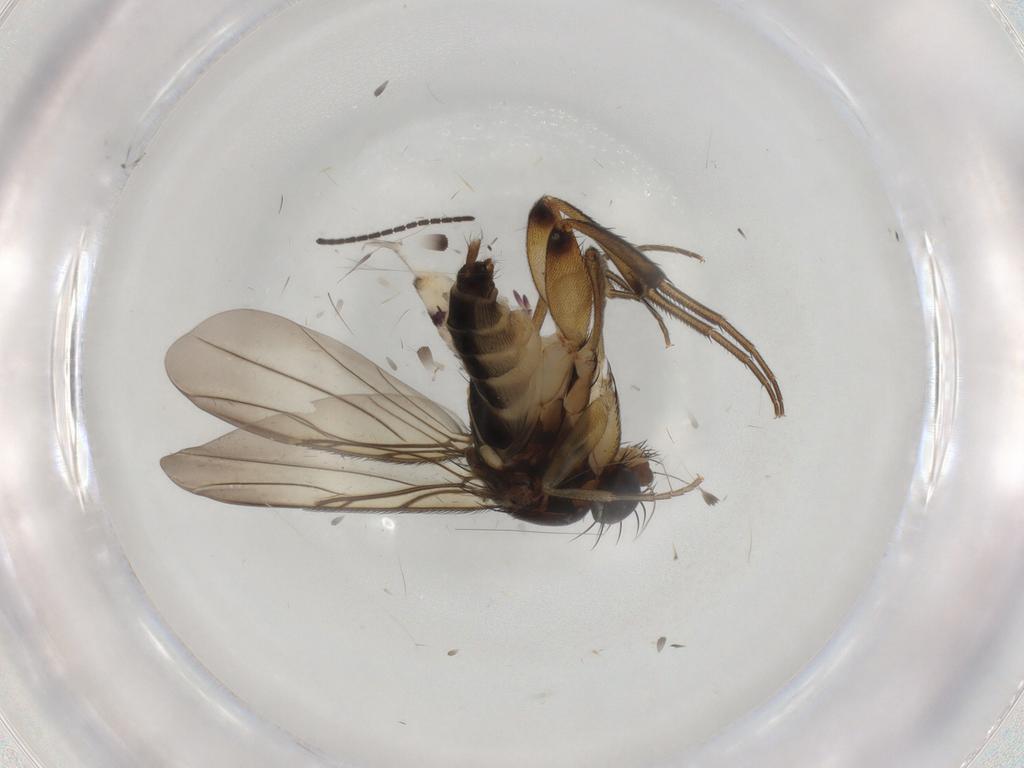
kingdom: Animalia
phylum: Arthropoda
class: Insecta
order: Diptera
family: Phoridae
